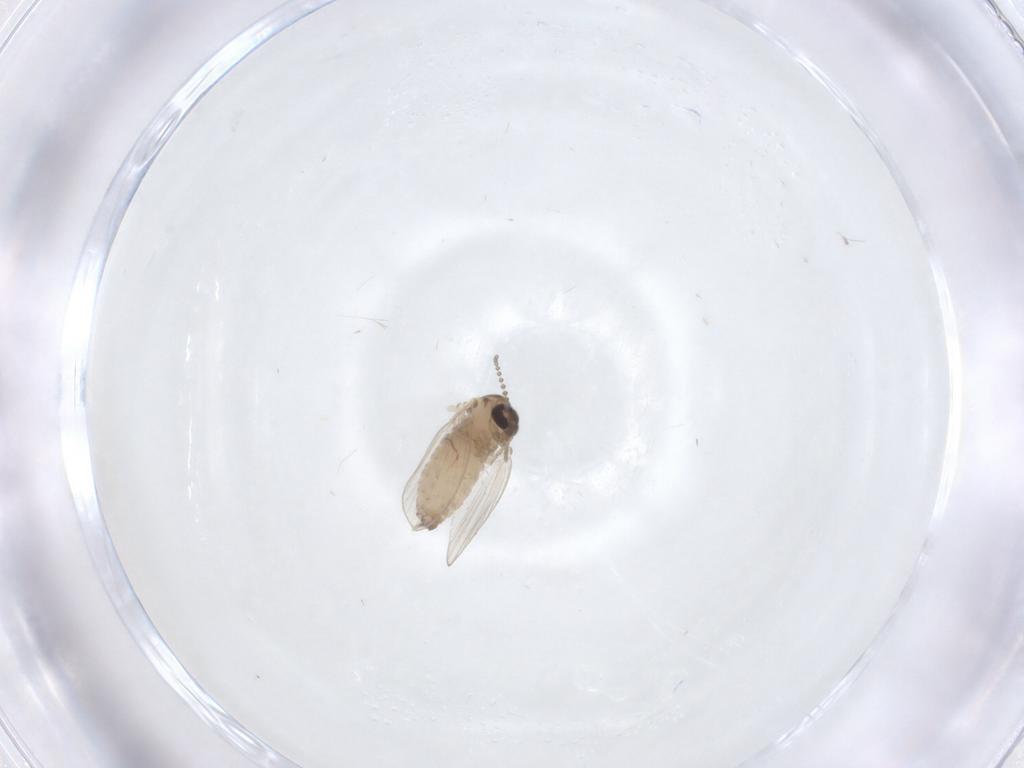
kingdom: Animalia
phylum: Arthropoda
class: Insecta
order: Diptera
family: Psychodidae
